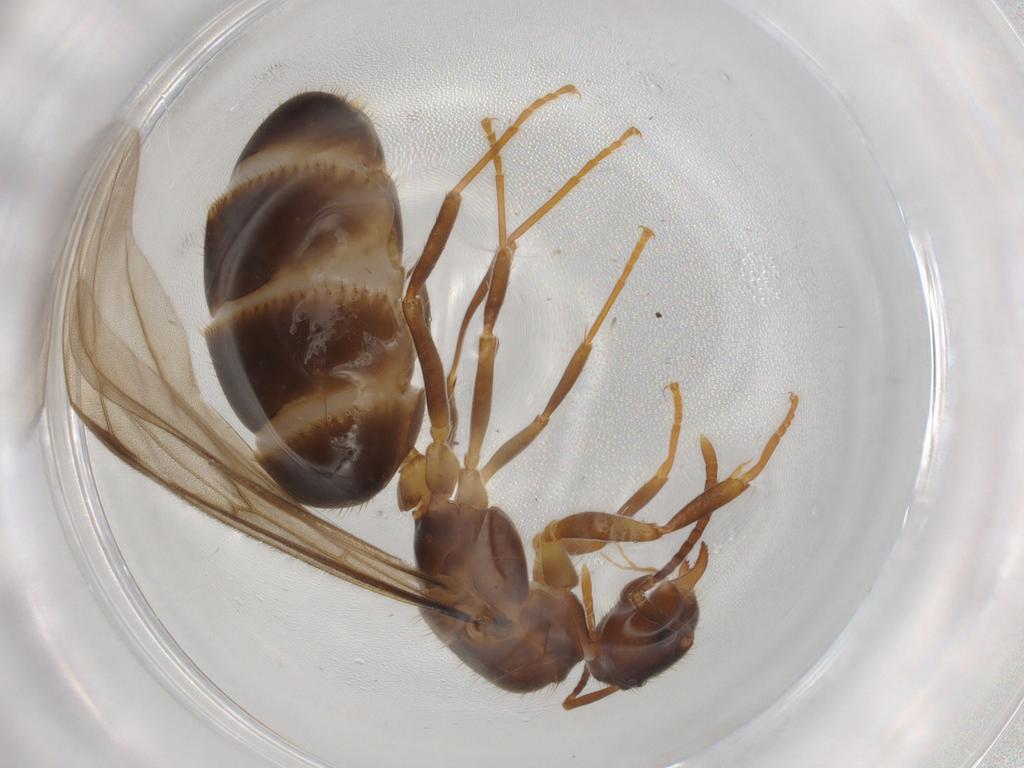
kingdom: Animalia
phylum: Arthropoda
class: Insecta
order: Hymenoptera
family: Formicidae
